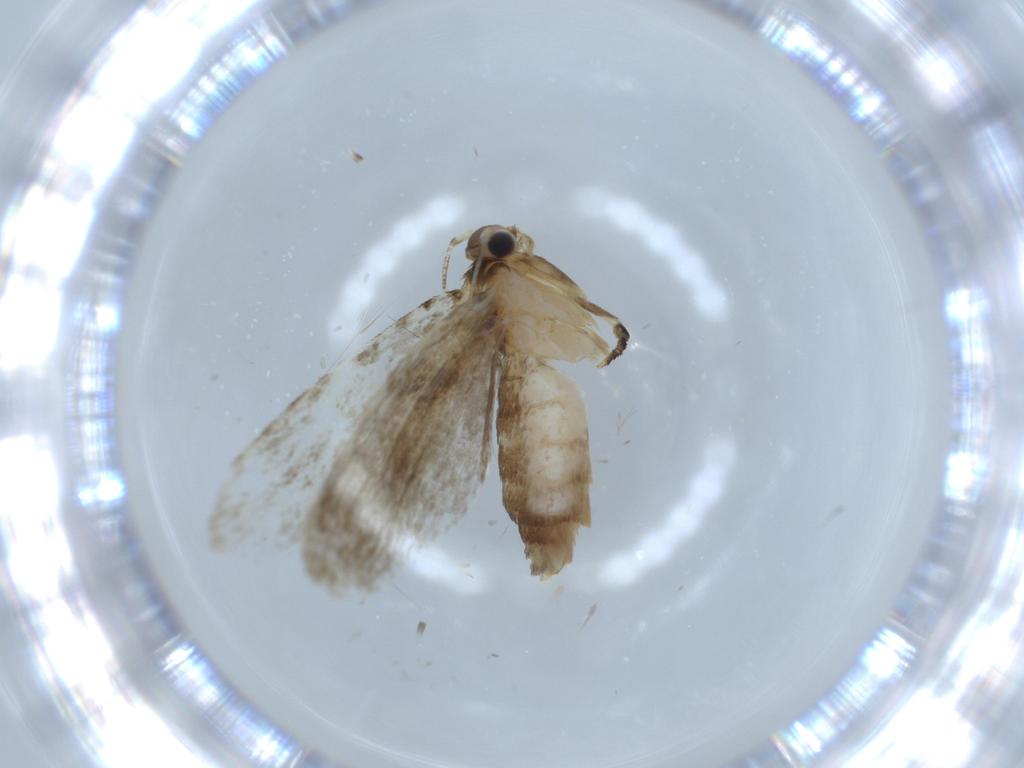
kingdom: Animalia
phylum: Arthropoda
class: Insecta
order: Lepidoptera
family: Tineidae
